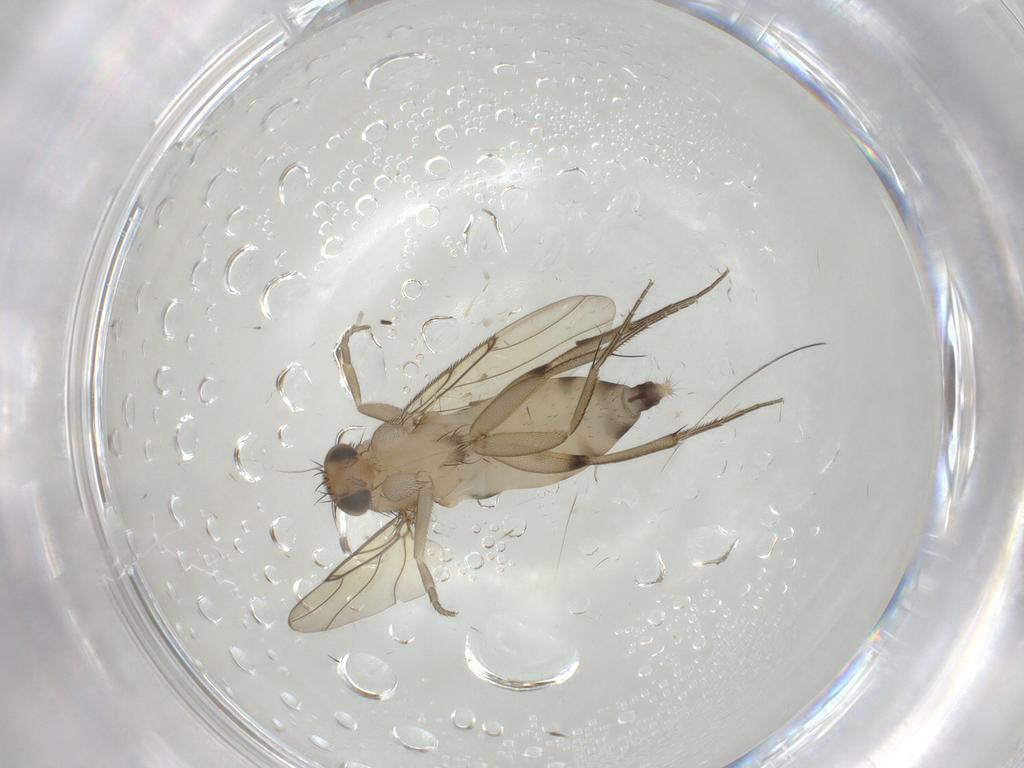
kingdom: Animalia
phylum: Arthropoda
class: Insecta
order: Diptera
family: Phoridae
